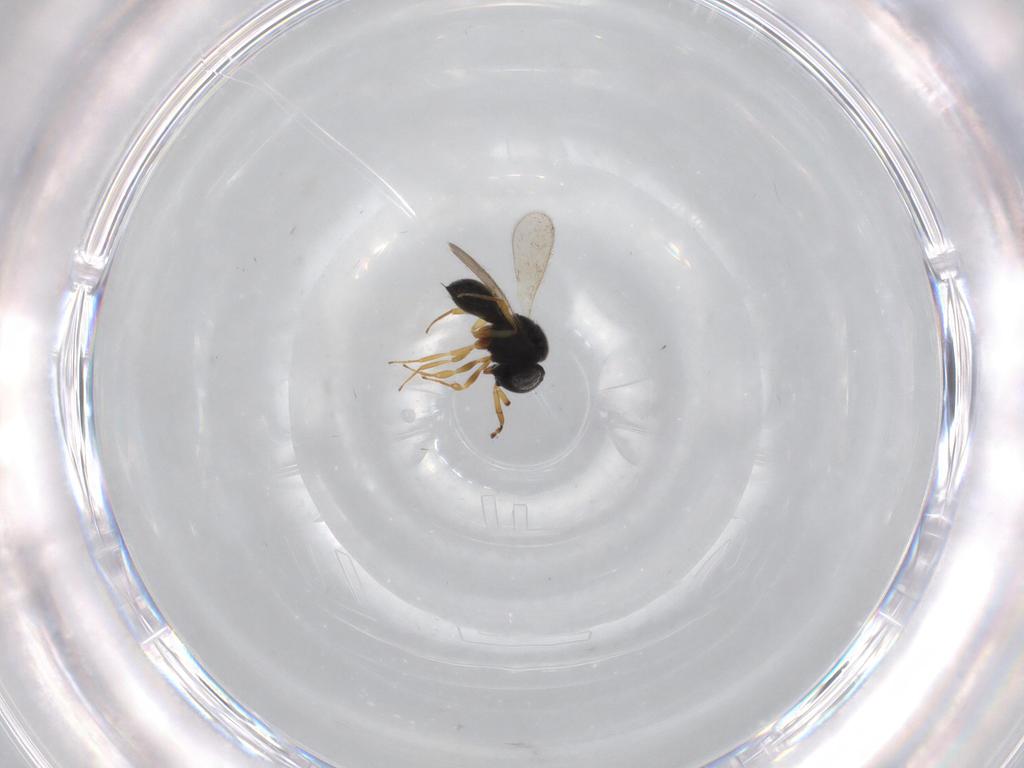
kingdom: Animalia
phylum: Arthropoda
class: Insecta
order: Hymenoptera
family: Scelionidae
